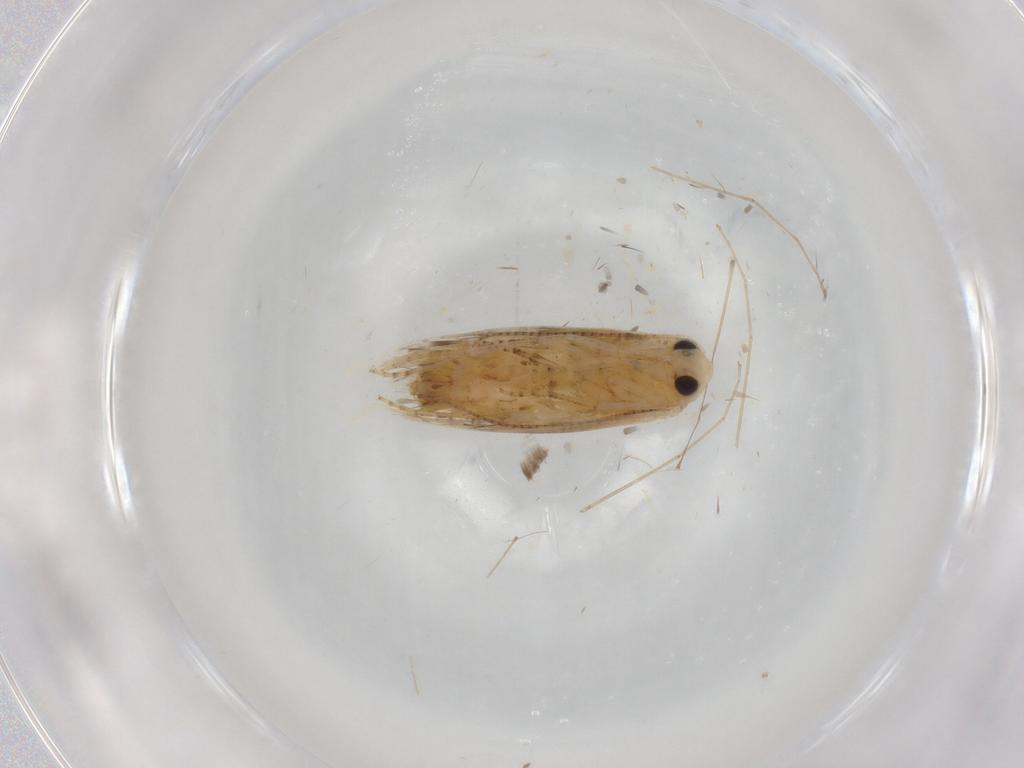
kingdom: Animalia
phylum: Arthropoda
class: Insecta
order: Lepidoptera
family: Bucculatricidae
